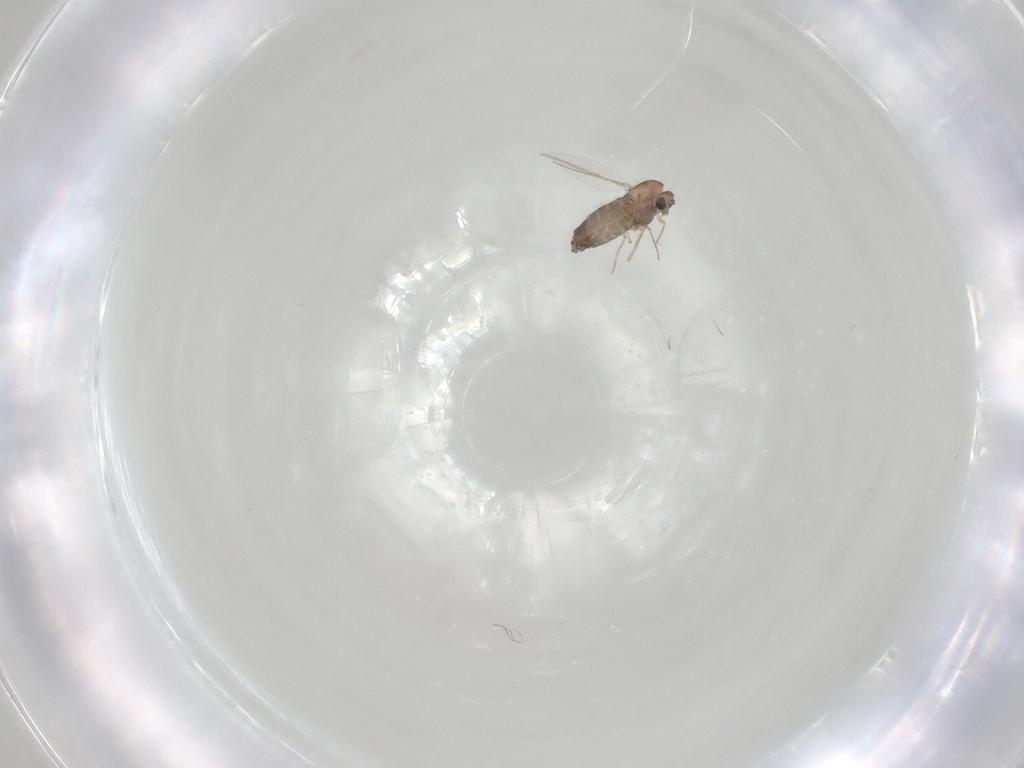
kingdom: Animalia
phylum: Arthropoda
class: Insecta
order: Diptera
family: Chironomidae
